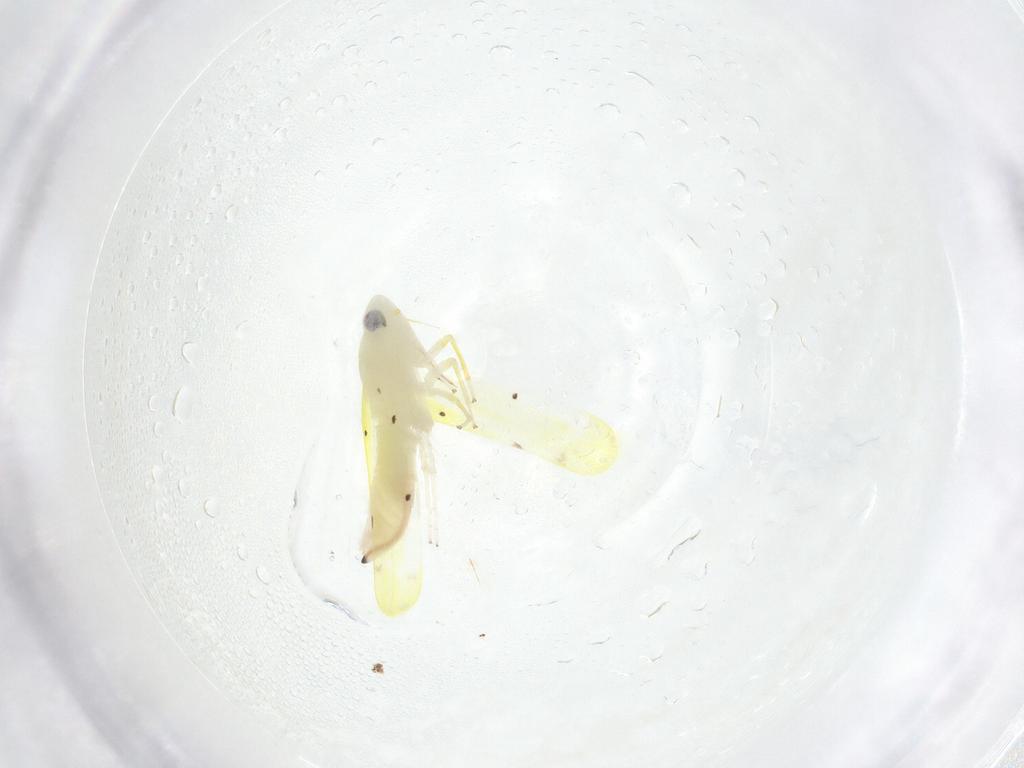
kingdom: Animalia
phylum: Arthropoda
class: Insecta
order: Hemiptera
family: Cicadellidae
